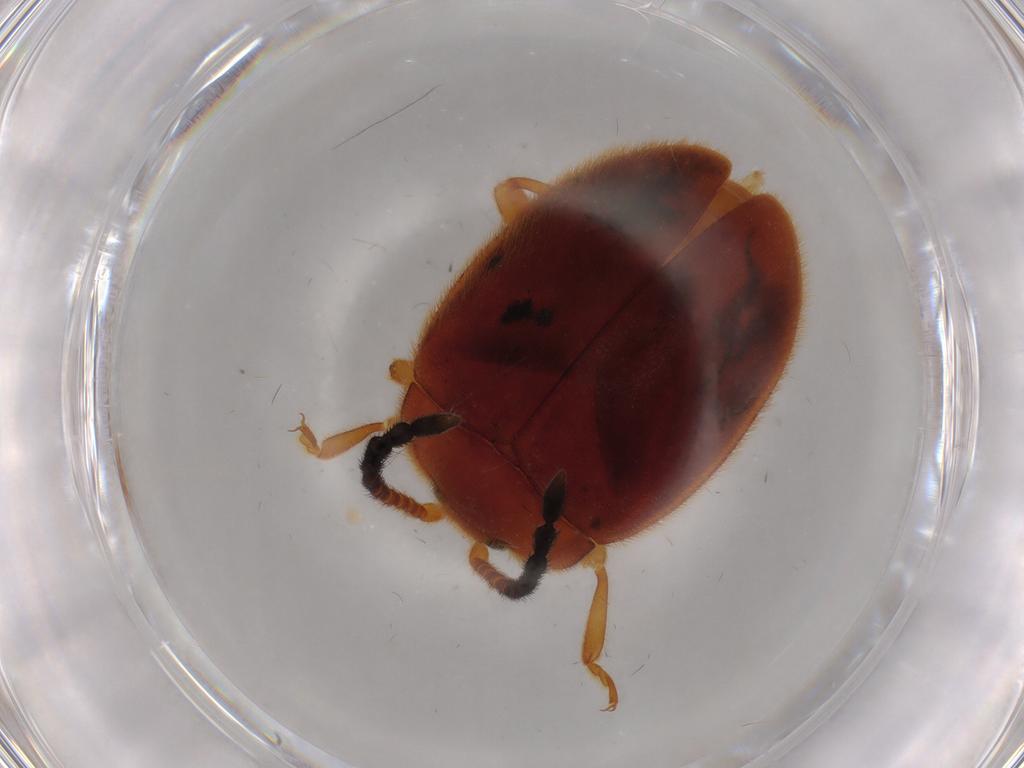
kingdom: Animalia
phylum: Arthropoda
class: Insecta
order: Coleoptera
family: Endomychidae
